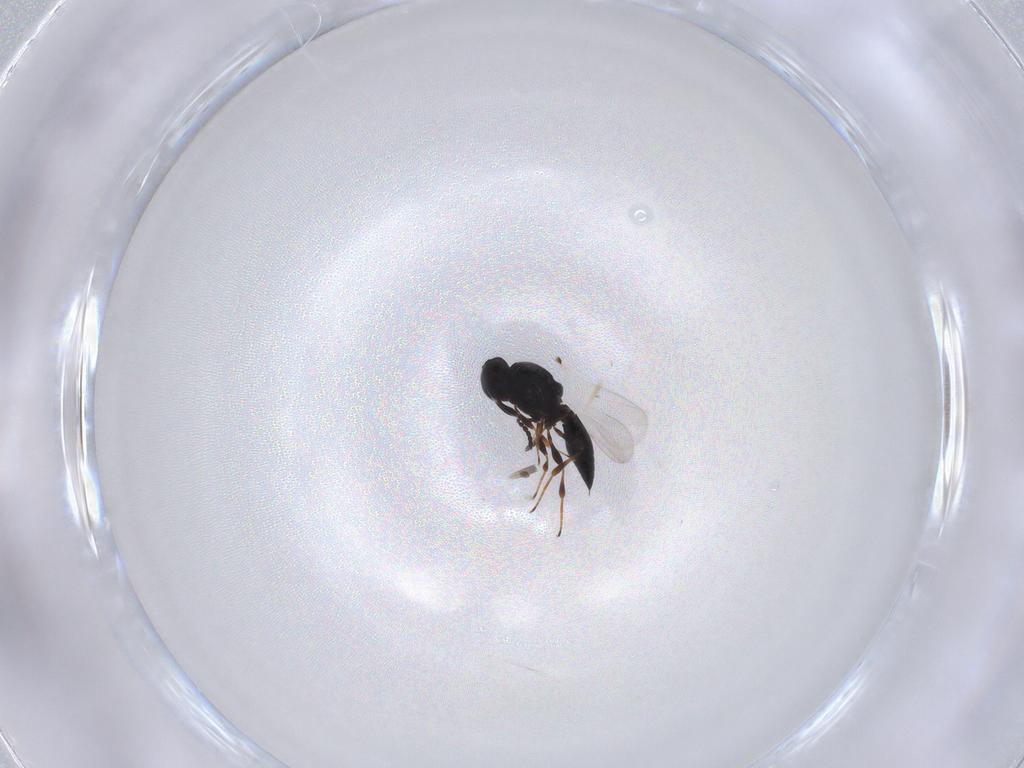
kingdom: Animalia
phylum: Arthropoda
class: Insecta
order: Hymenoptera
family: Platygastridae
